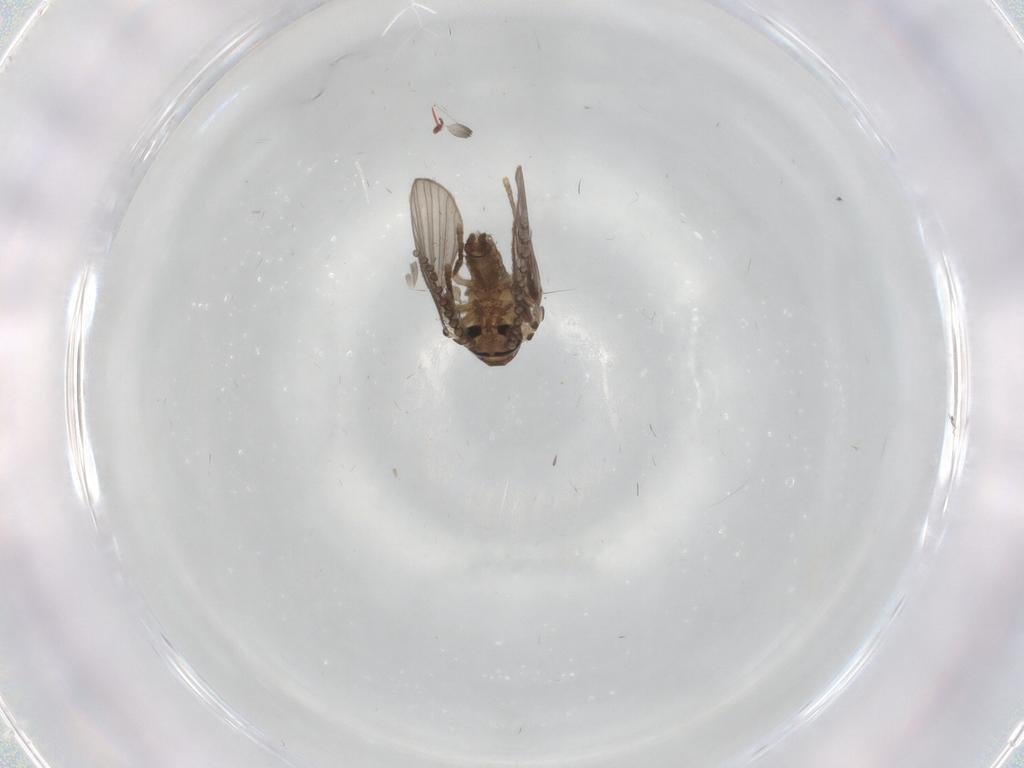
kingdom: Animalia
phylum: Arthropoda
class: Insecta
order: Diptera
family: Psychodidae
